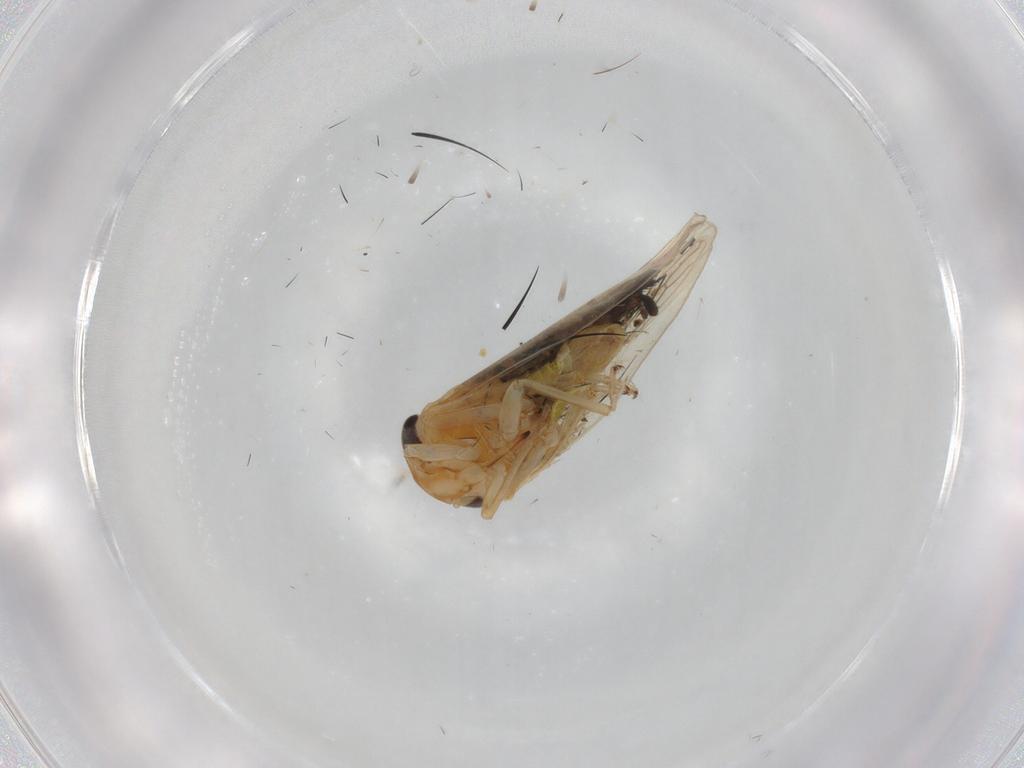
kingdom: Animalia
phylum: Arthropoda
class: Insecta
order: Hemiptera
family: Cicadellidae
